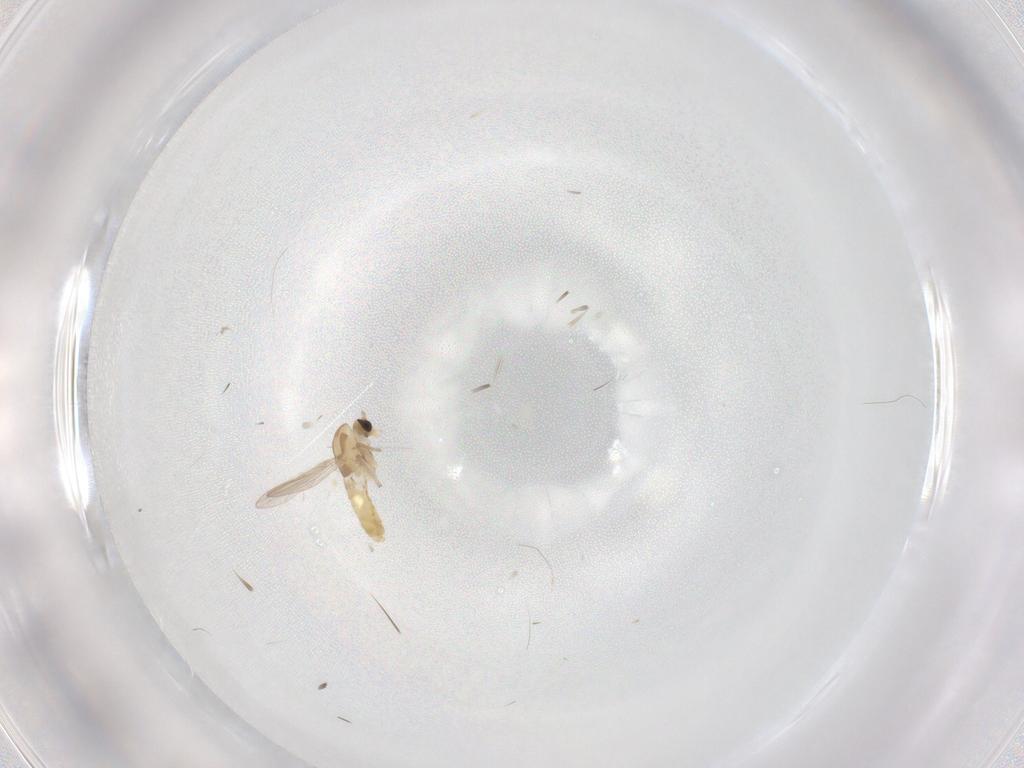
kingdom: Animalia
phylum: Arthropoda
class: Insecta
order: Diptera
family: Chironomidae
